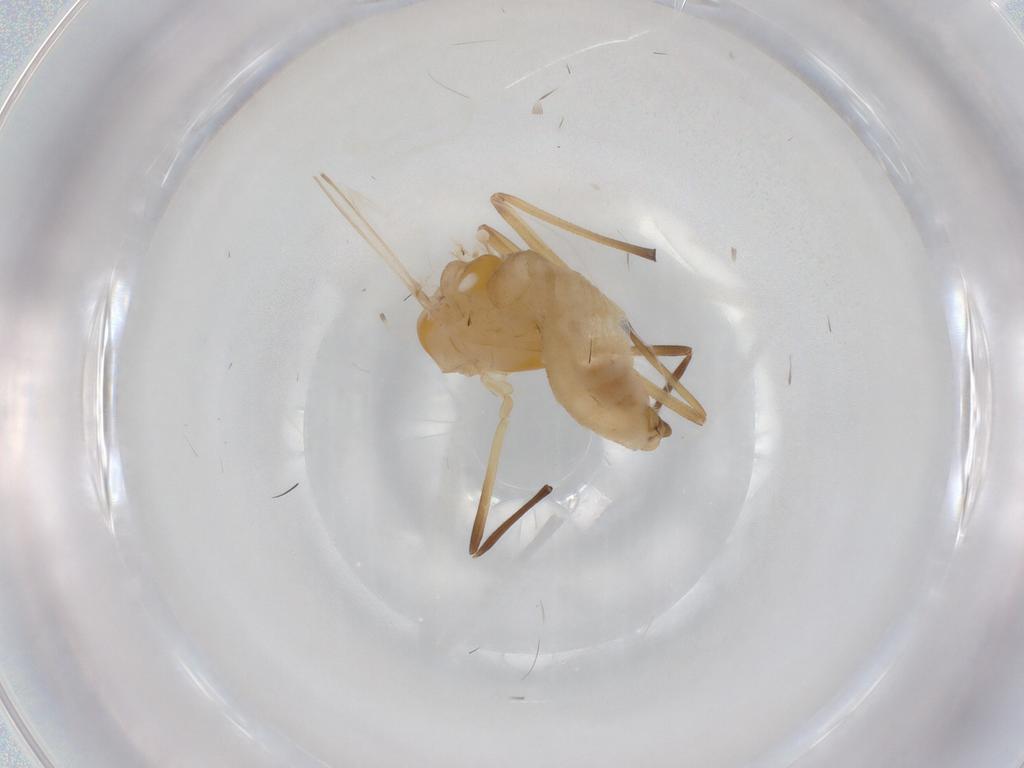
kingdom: Animalia
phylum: Arthropoda
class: Insecta
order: Diptera
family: Chironomidae
